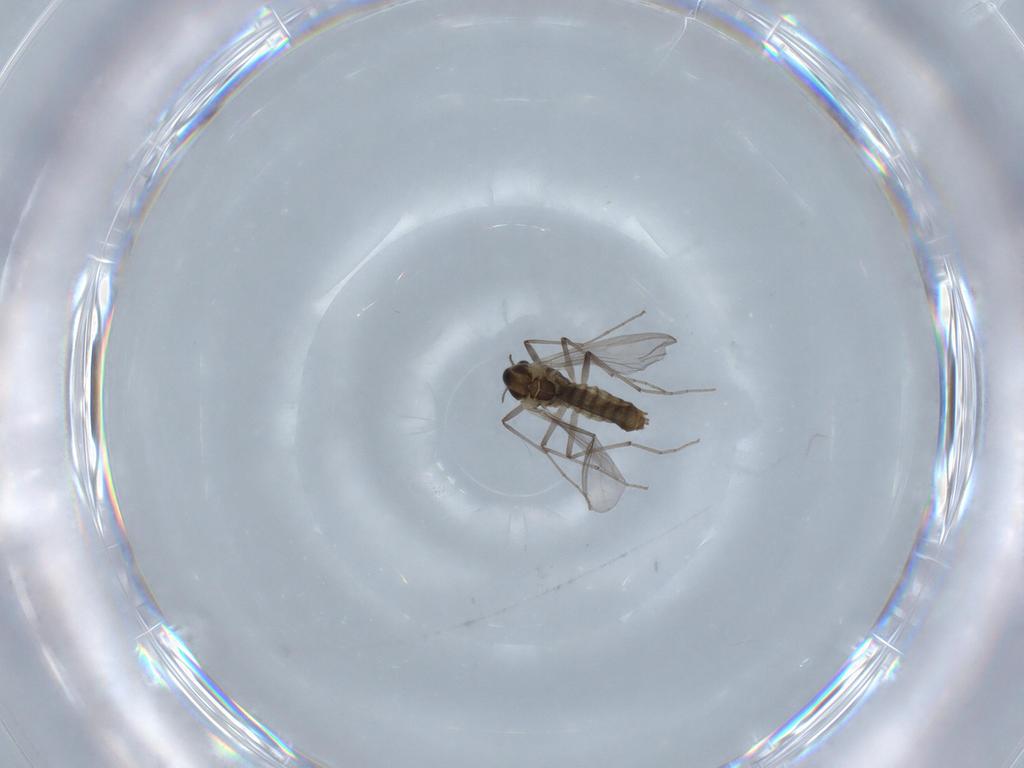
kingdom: Animalia
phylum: Arthropoda
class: Insecta
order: Diptera
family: Chironomidae
